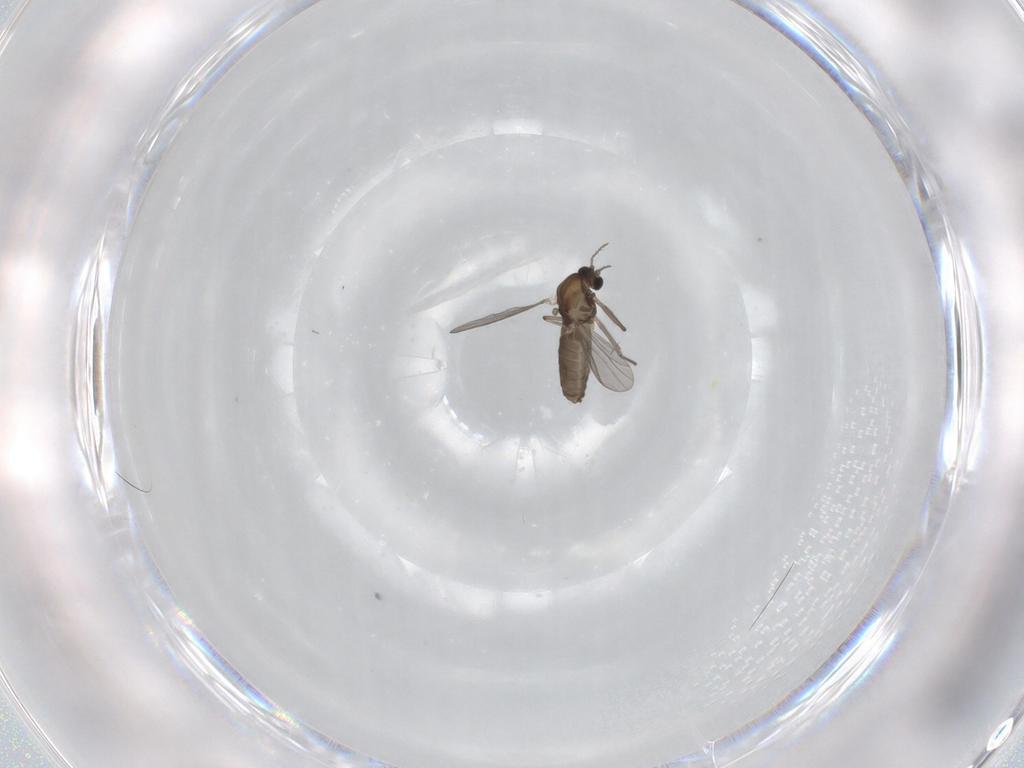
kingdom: Animalia
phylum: Arthropoda
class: Insecta
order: Diptera
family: Chironomidae
